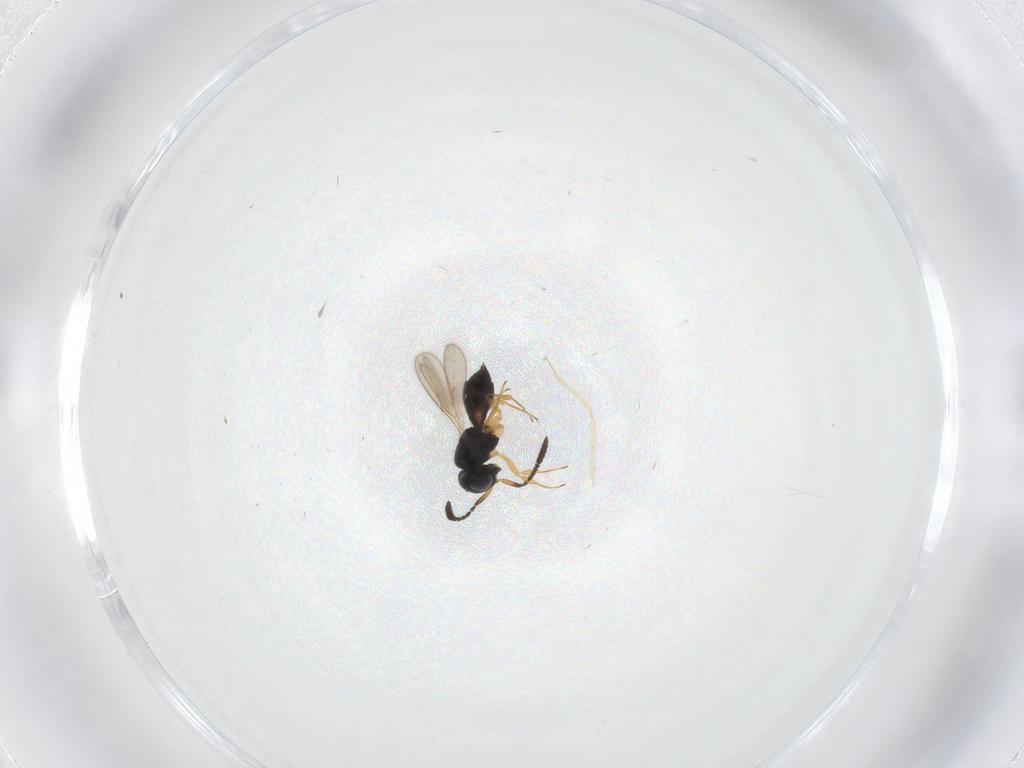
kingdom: Animalia
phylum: Arthropoda
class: Insecta
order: Hymenoptera
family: Scelionidae
